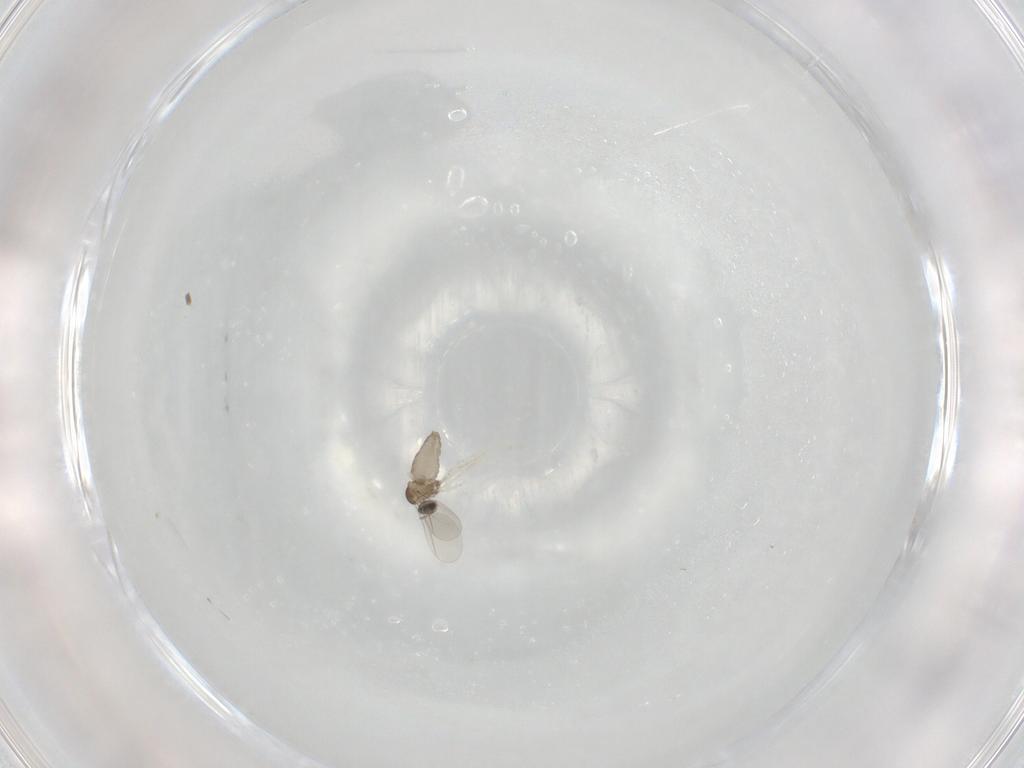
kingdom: Animalia
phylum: Arthropoda
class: Insecta
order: Diptera
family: Cecidomyiidae
